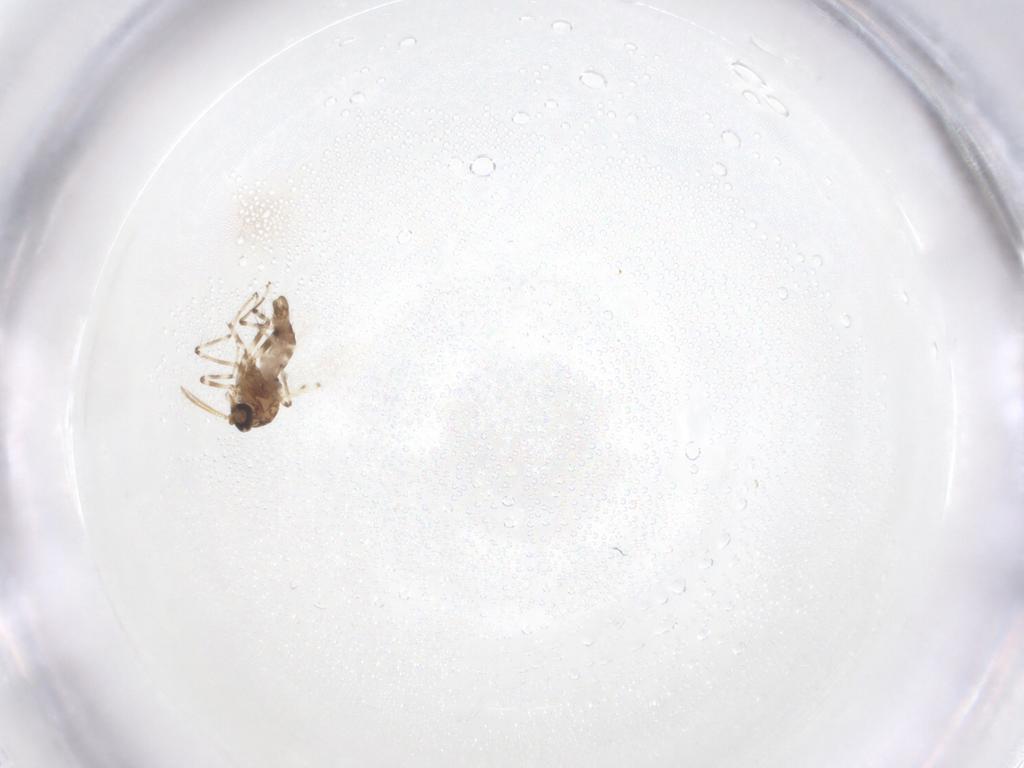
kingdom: Animalia
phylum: Arthropoda
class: Insecta
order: Diptera
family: Ceratopogonidae
